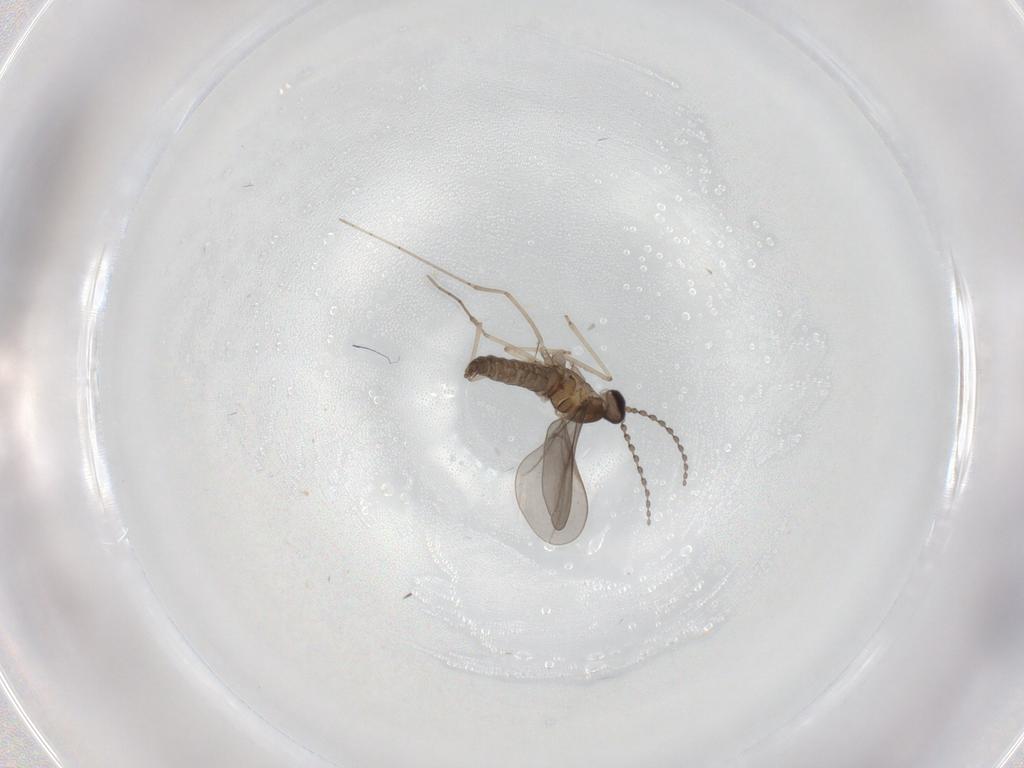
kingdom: Animalia
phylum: Arthropoda
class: Insecta
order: Diptera
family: Cecidomyiidae
